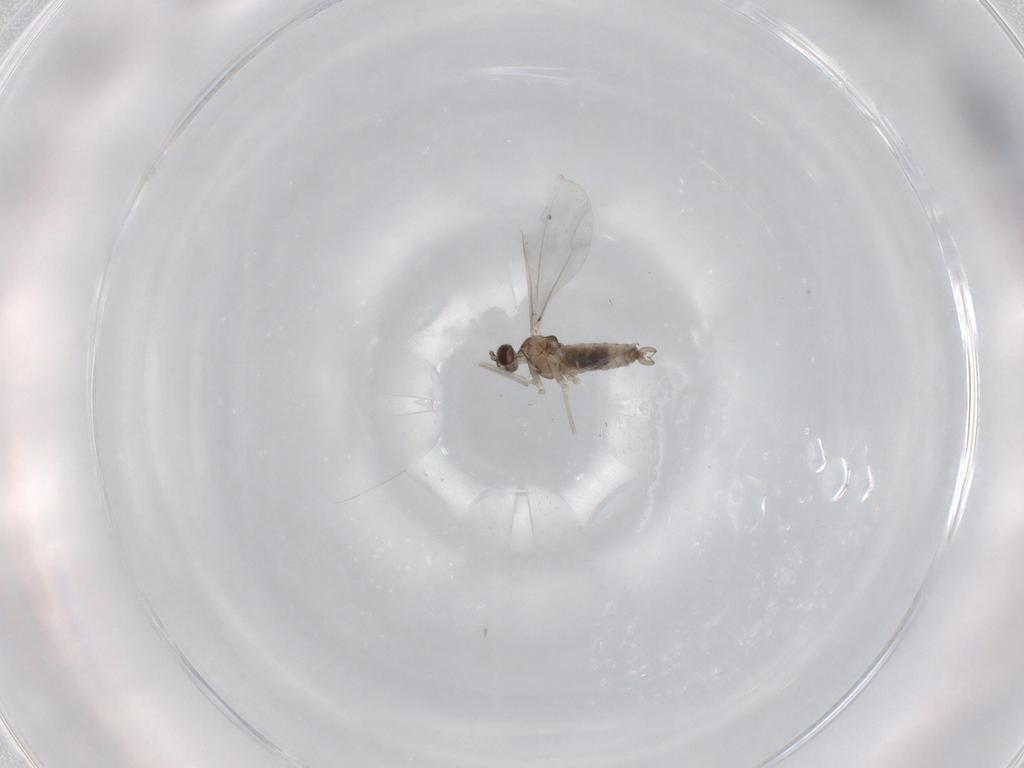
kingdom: Animalia
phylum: Arthropoda
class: Insecta
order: Diptera
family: Cecidomyiidae
